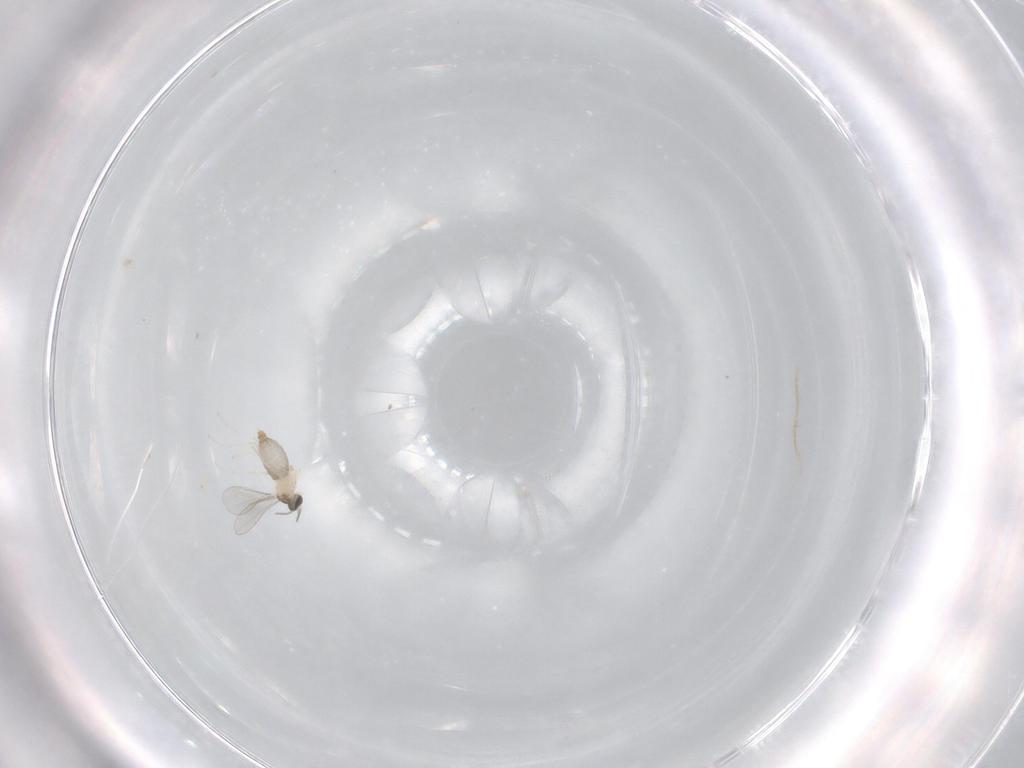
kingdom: Animalia
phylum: Arthropoda
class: Insecta
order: Diptera
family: Cecidomyiidae
